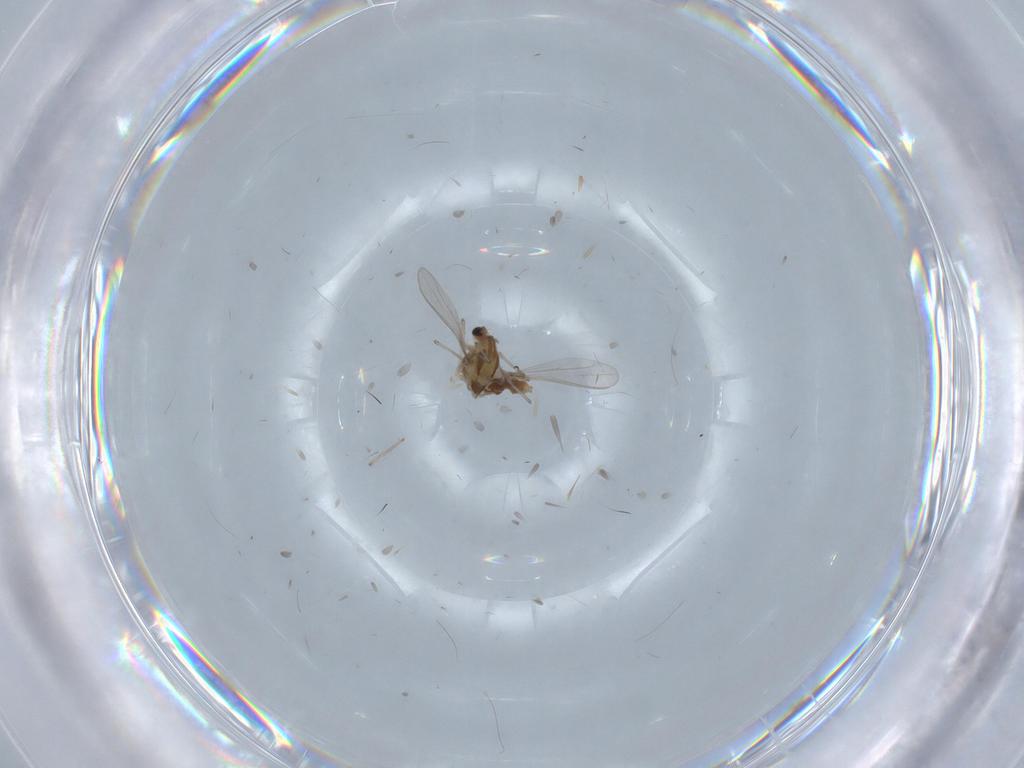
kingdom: Animalia
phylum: Arthropoda
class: Insecta
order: Diptera
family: Chironomidae
